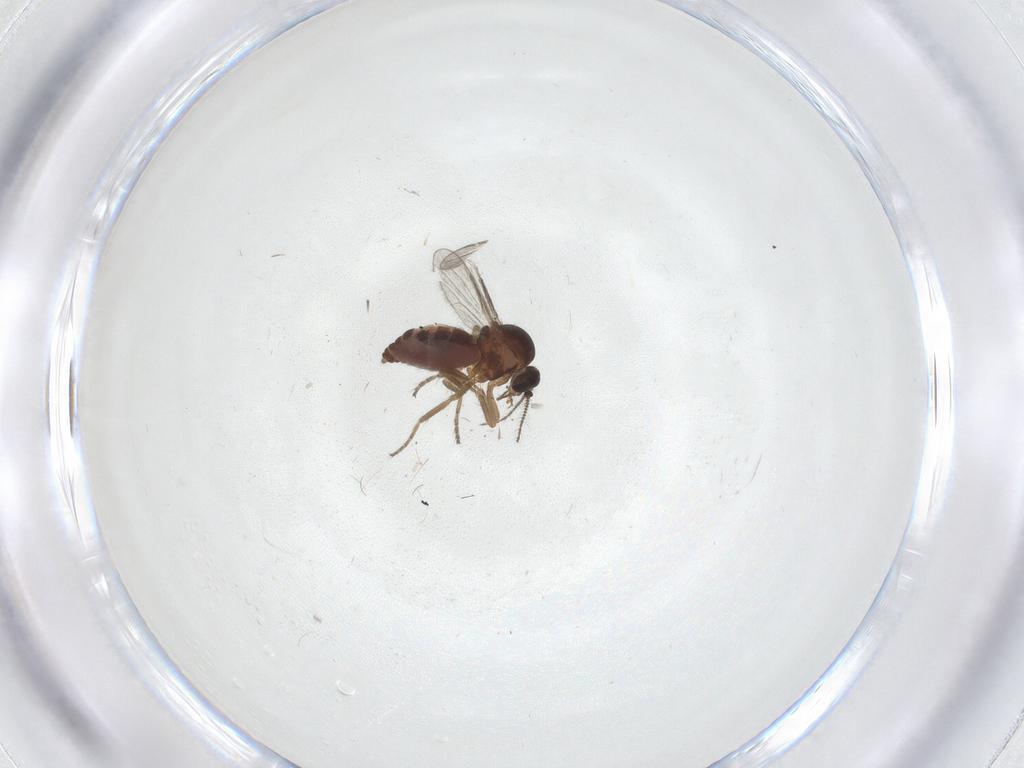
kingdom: Animalia
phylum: Arthropoda
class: Insecta
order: Diptera
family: Ceratopogonidae
